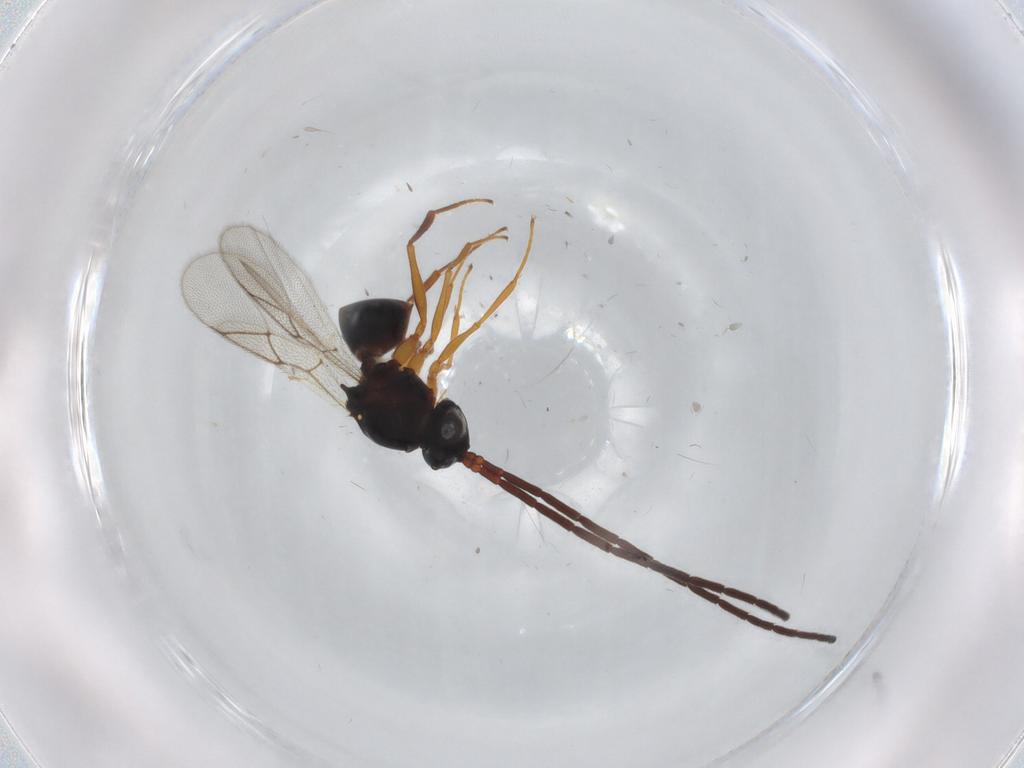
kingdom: Animalia
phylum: Arthropoda
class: Insecta
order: Hymenoptera
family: Figitidae
